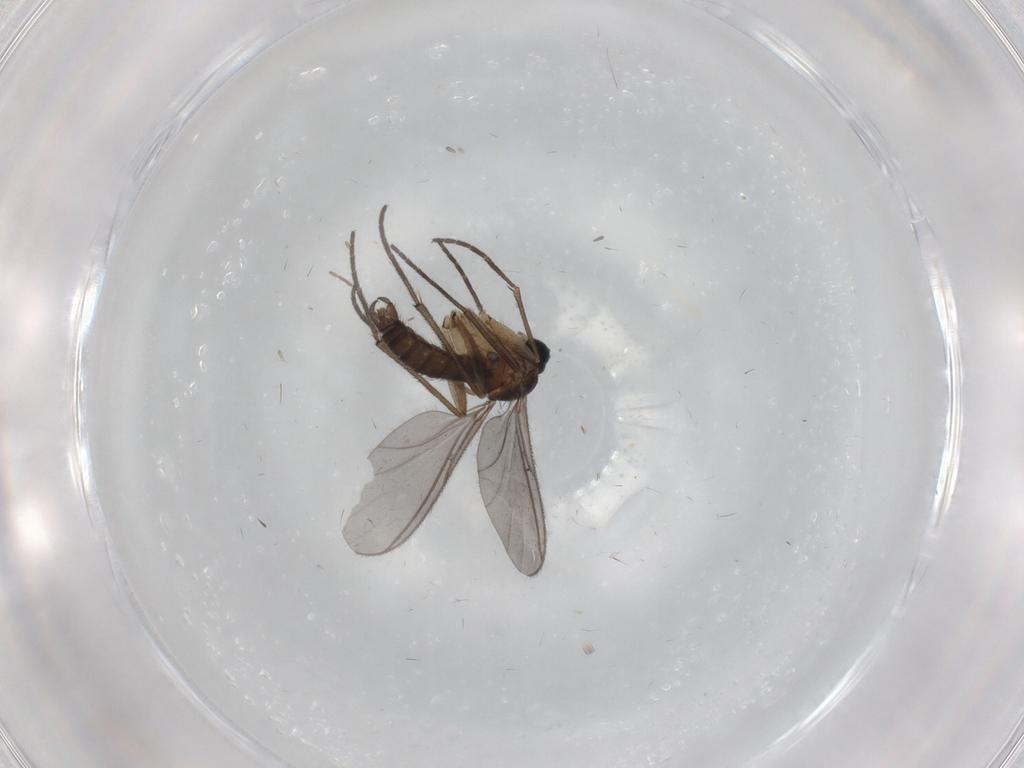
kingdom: Animalia
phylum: Arthropoda
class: Insecta
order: Diptera
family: Sciaridae
